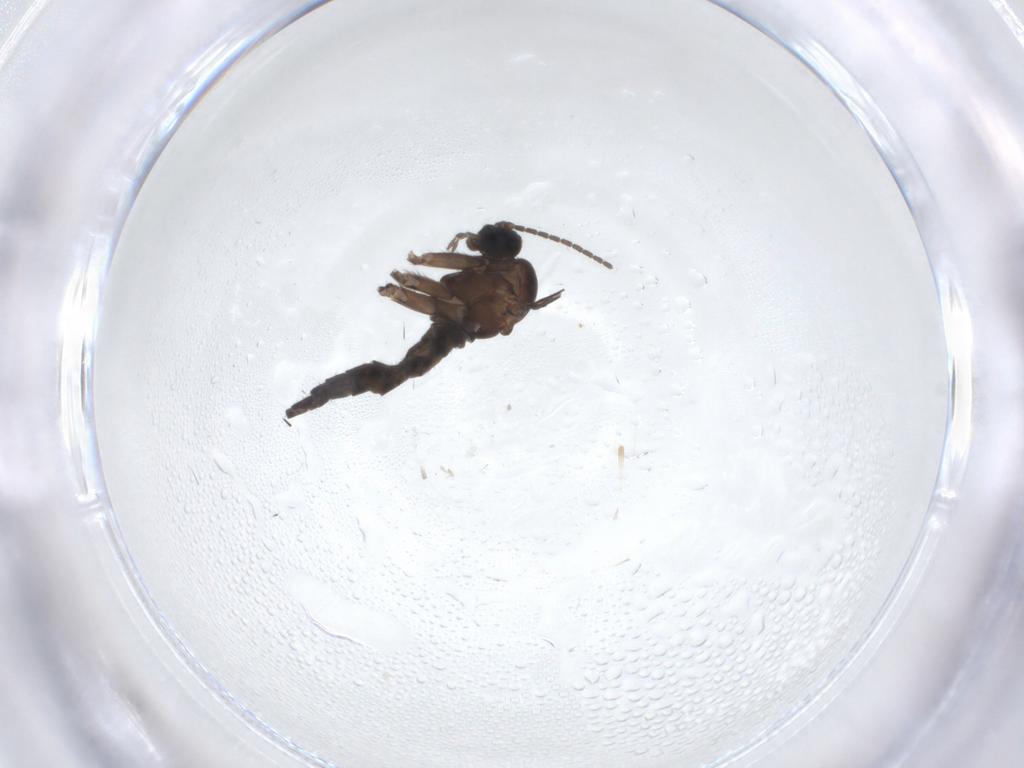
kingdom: Animalia
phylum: Arthropoda
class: Insecta
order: Diptera
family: Sciaridae
